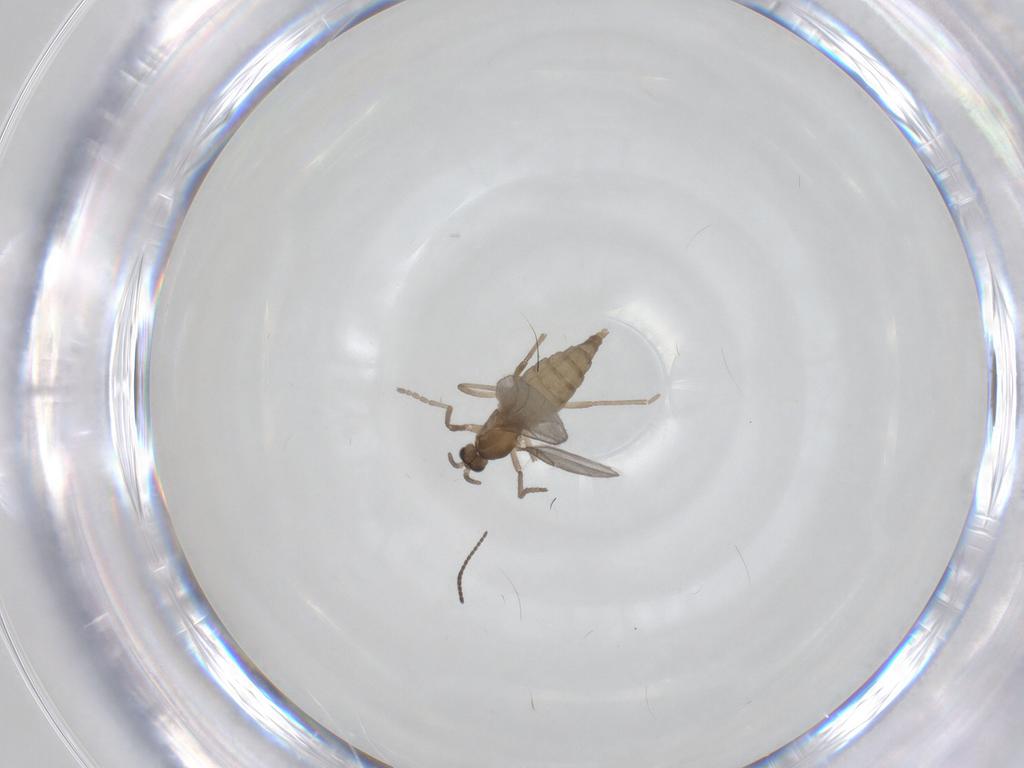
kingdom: Animalia
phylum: Arthropoda
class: Insecta
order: Diptera
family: Cecidomyiidae
